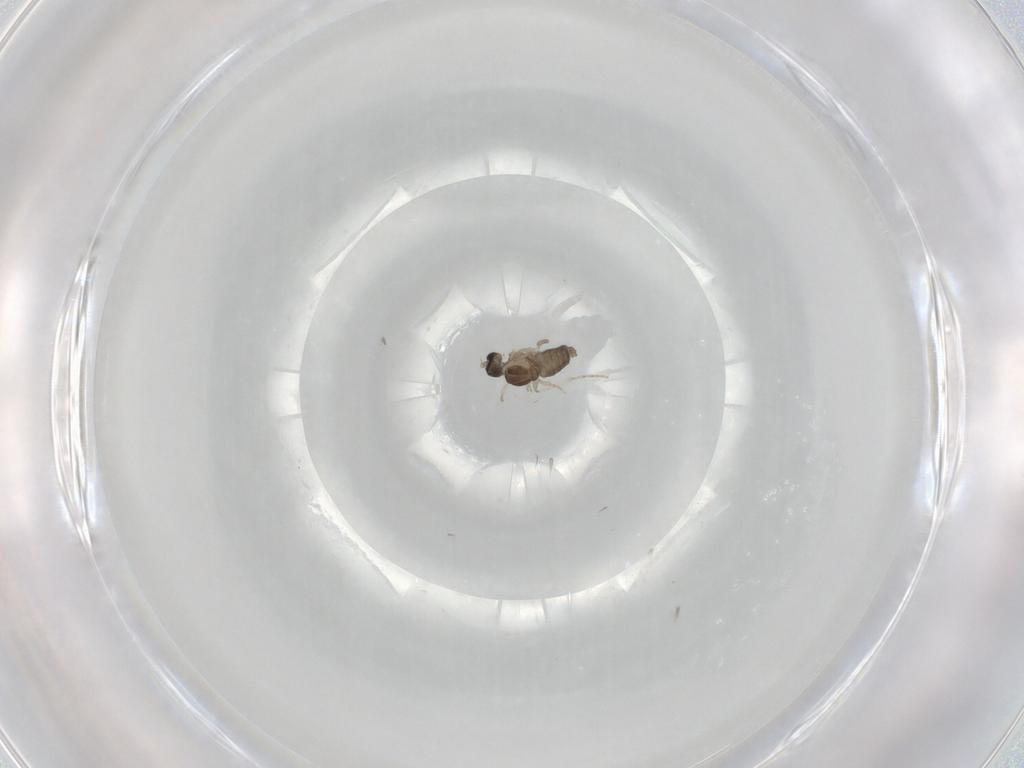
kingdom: Animalia
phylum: Arthropoda
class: Insecta
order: Diptera
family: Cecidomyiidae
